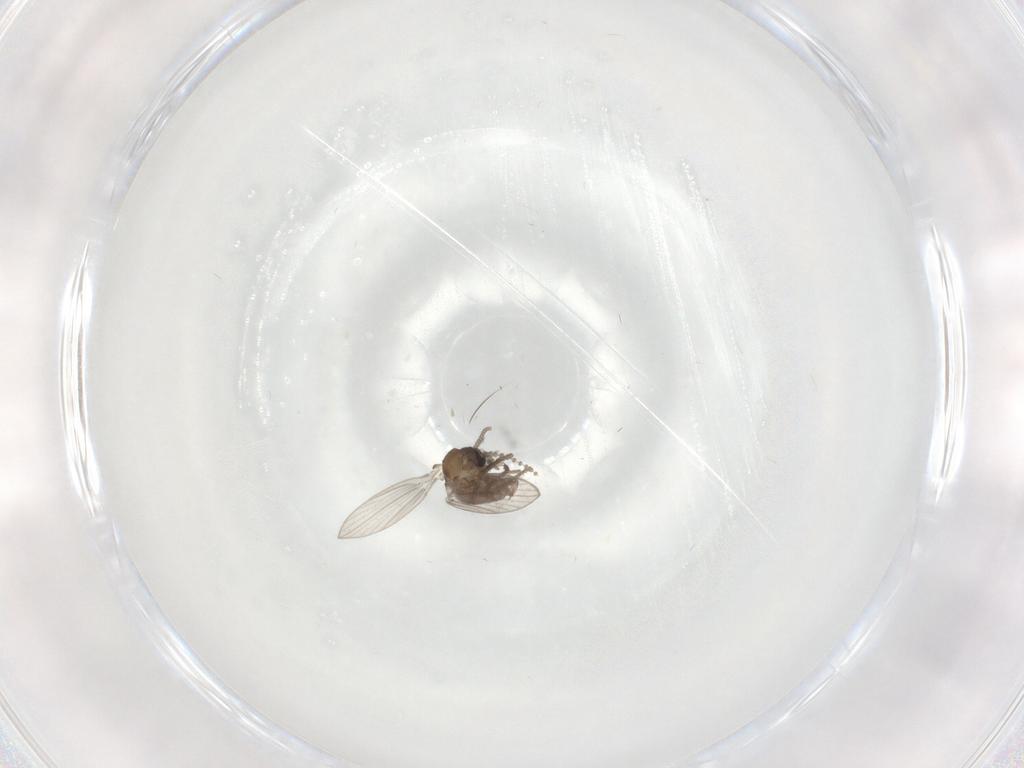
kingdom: Animalia
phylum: Arthropoda
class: Insecta
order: Diptera
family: Psychodidae
